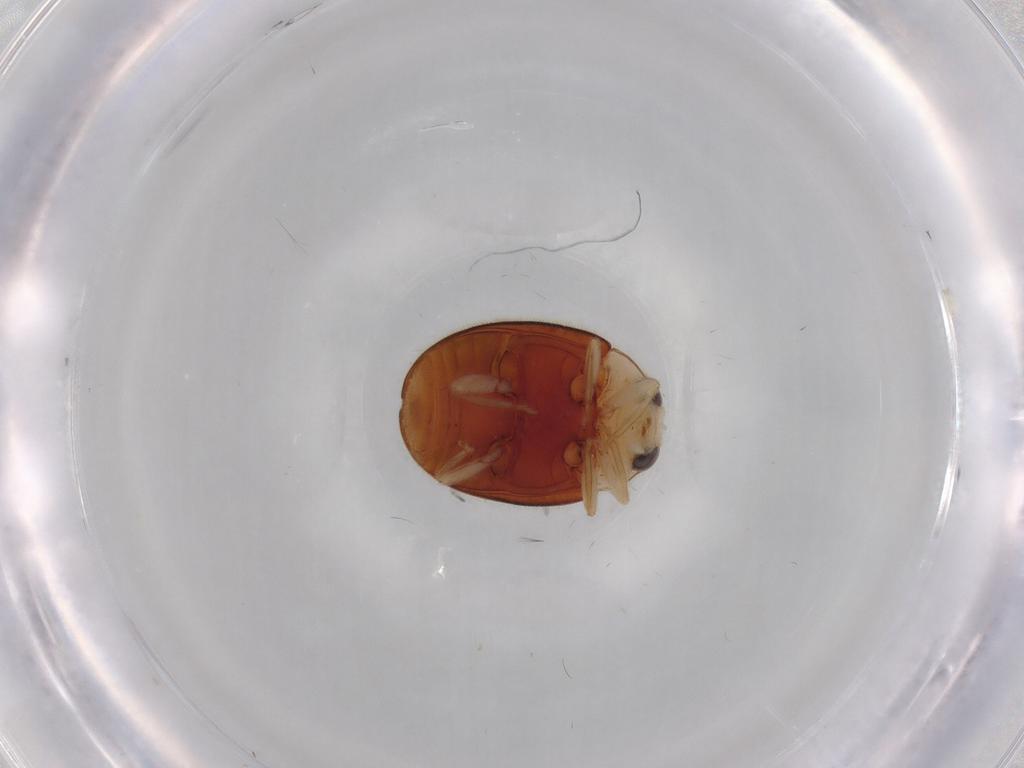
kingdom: Animalia
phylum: Arthropoda
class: Insecta
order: Coleoptera
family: Coccinellidae
